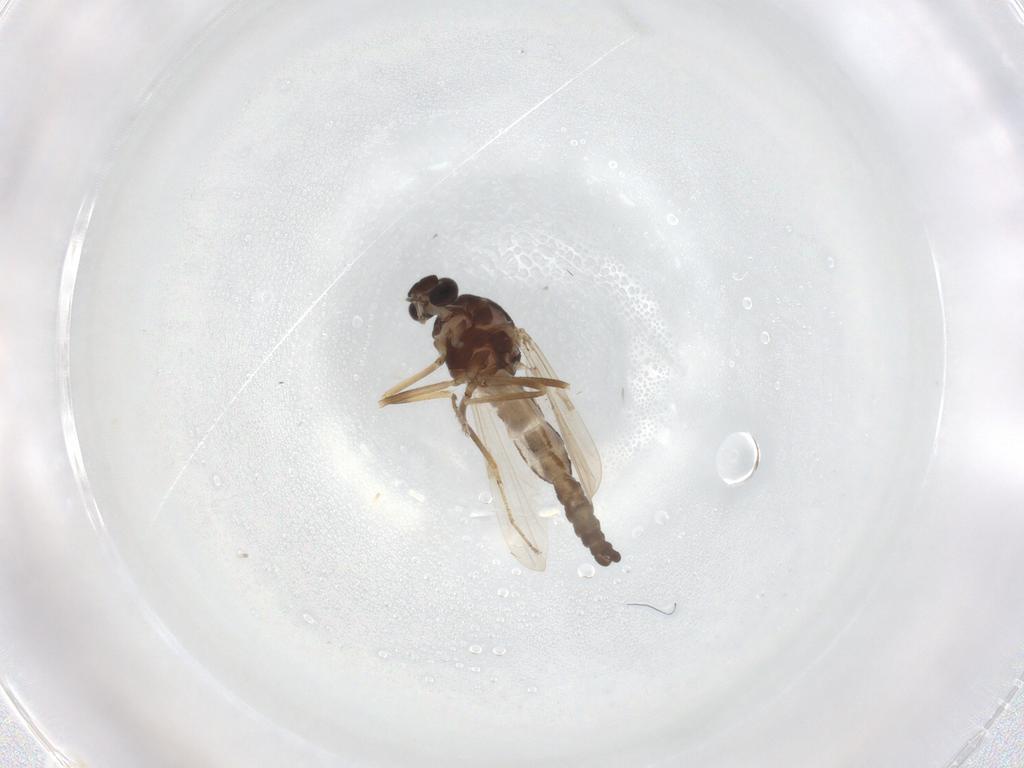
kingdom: Animalia
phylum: Arthropoda
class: Insecta
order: Diptera
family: Ceratopogonidae
